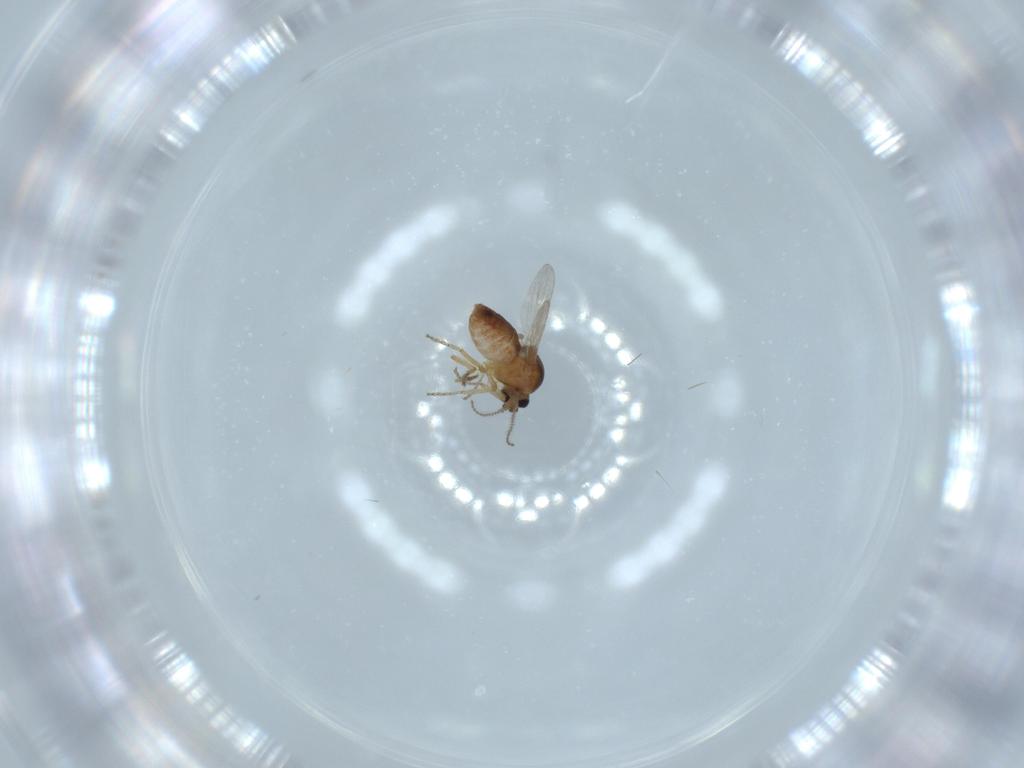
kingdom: Animalia
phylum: Arthropoda
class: Insecta
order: Diptera
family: Ceratopogonidae
